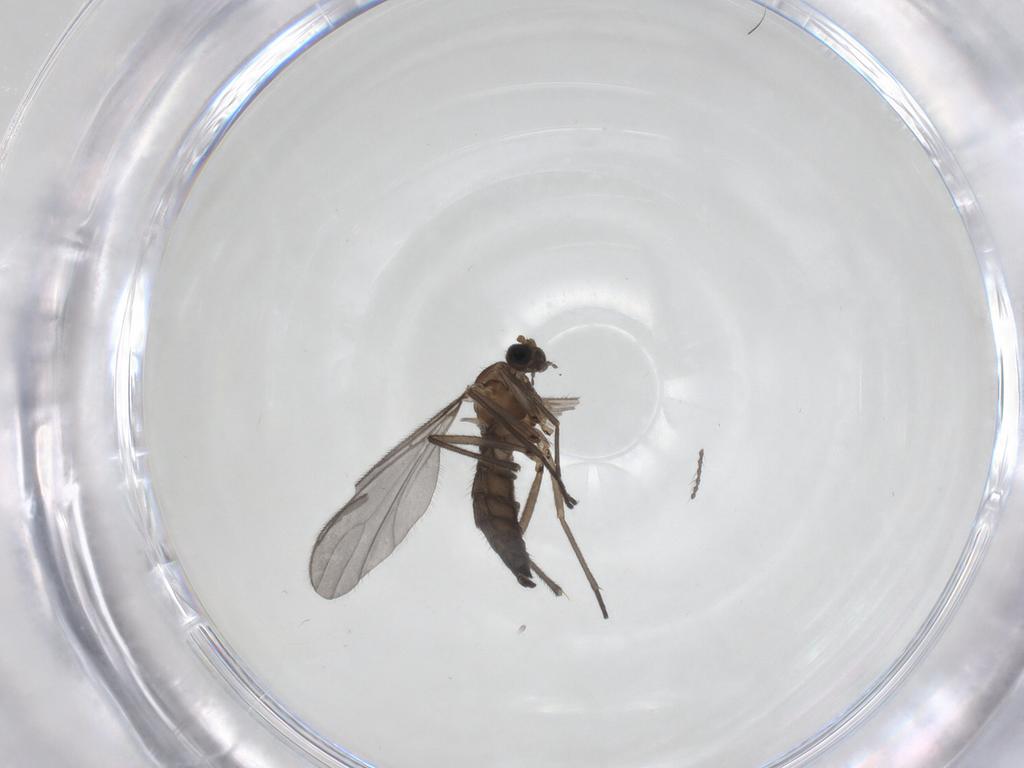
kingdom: Animalia
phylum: Arthropoda
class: Insecta
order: Diptera
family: Sciaridae
